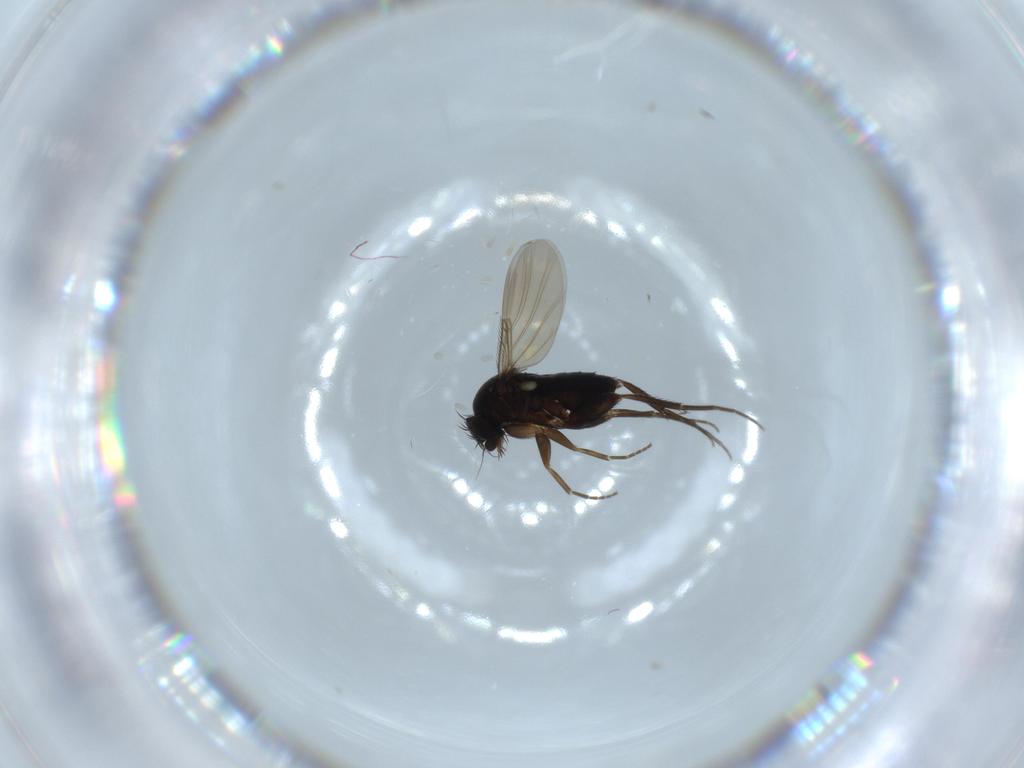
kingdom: Animalia
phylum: Arthropoda
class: Insecta
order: Diptera
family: Phoridae
